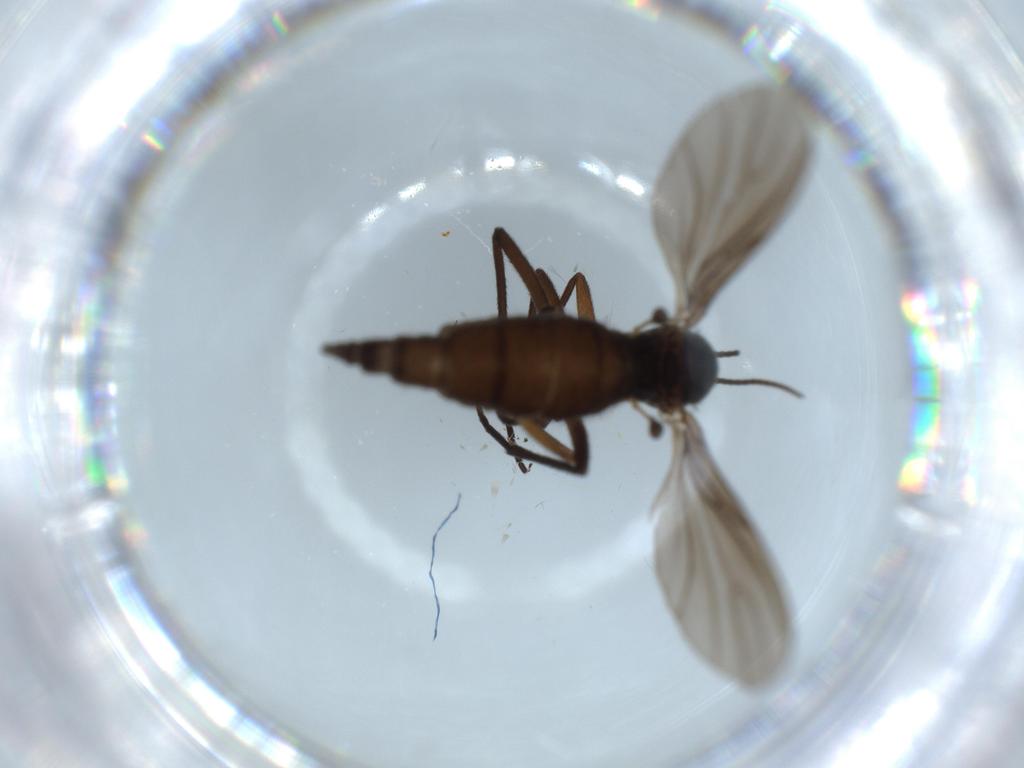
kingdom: Animalia
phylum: Arthropoda
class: Insecta
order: Diptera
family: Sciaridae
